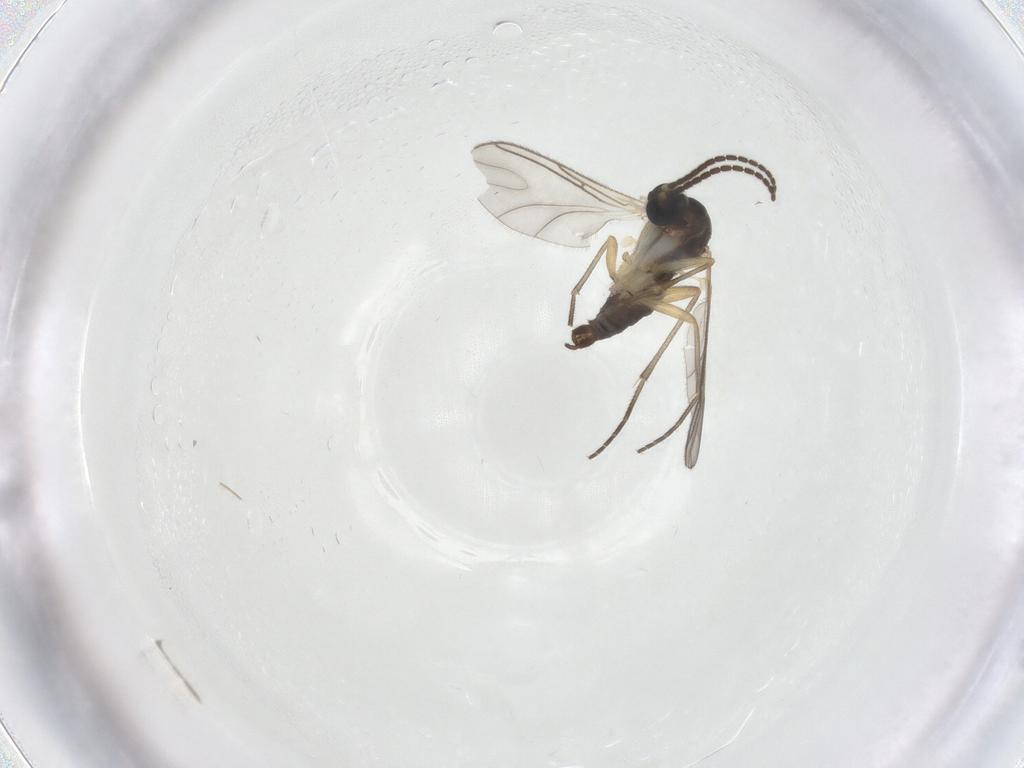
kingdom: Animalia
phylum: Arthropoda
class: Insecta
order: Diptera
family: Sciaridae
